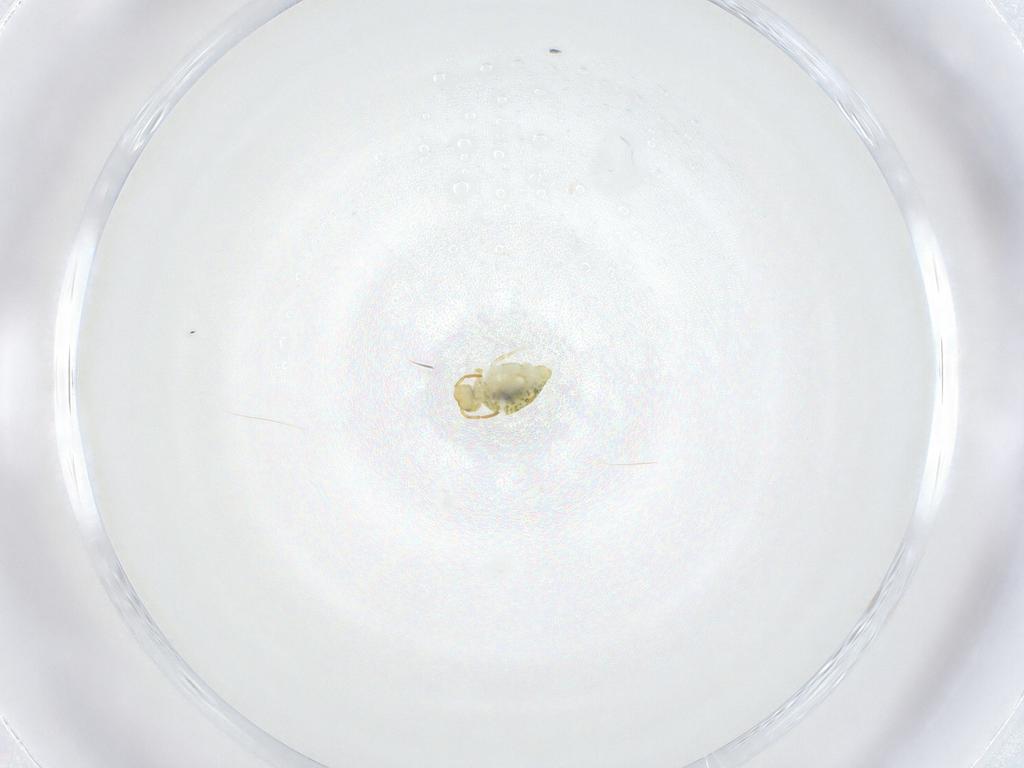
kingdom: Animalia
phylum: Arthropoda
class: Collembola
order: Symphypleona
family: Katiannidae
